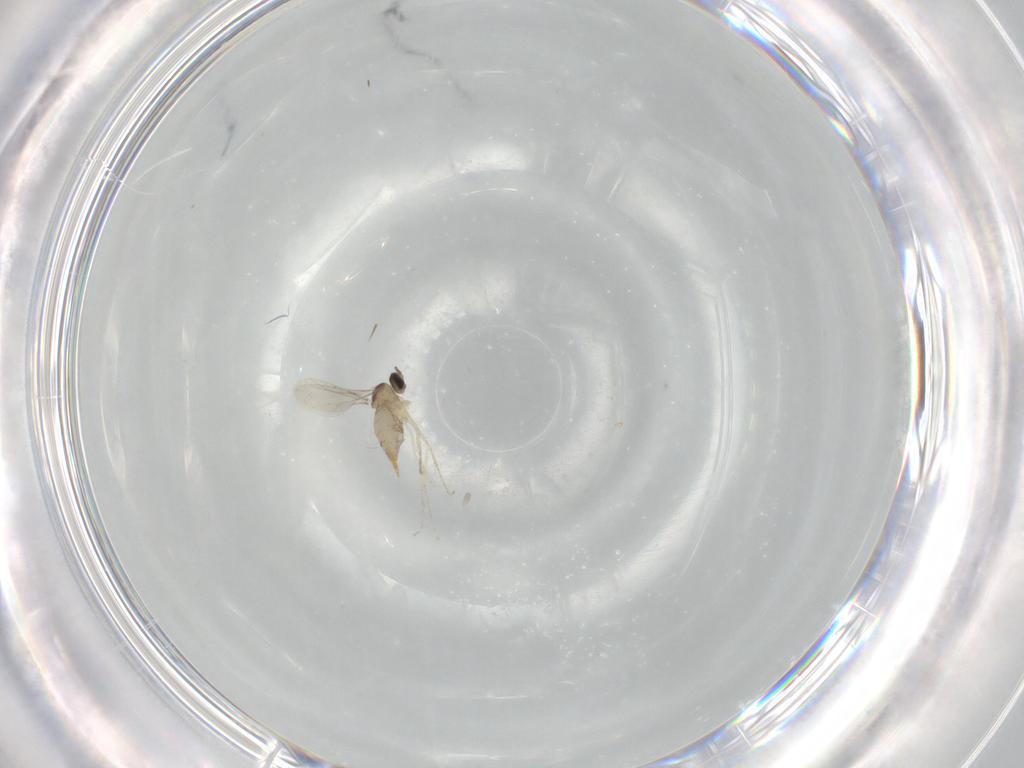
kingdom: Animalia
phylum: Arthropoda
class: Insecta
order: Diptera
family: Cecidomyiidae
